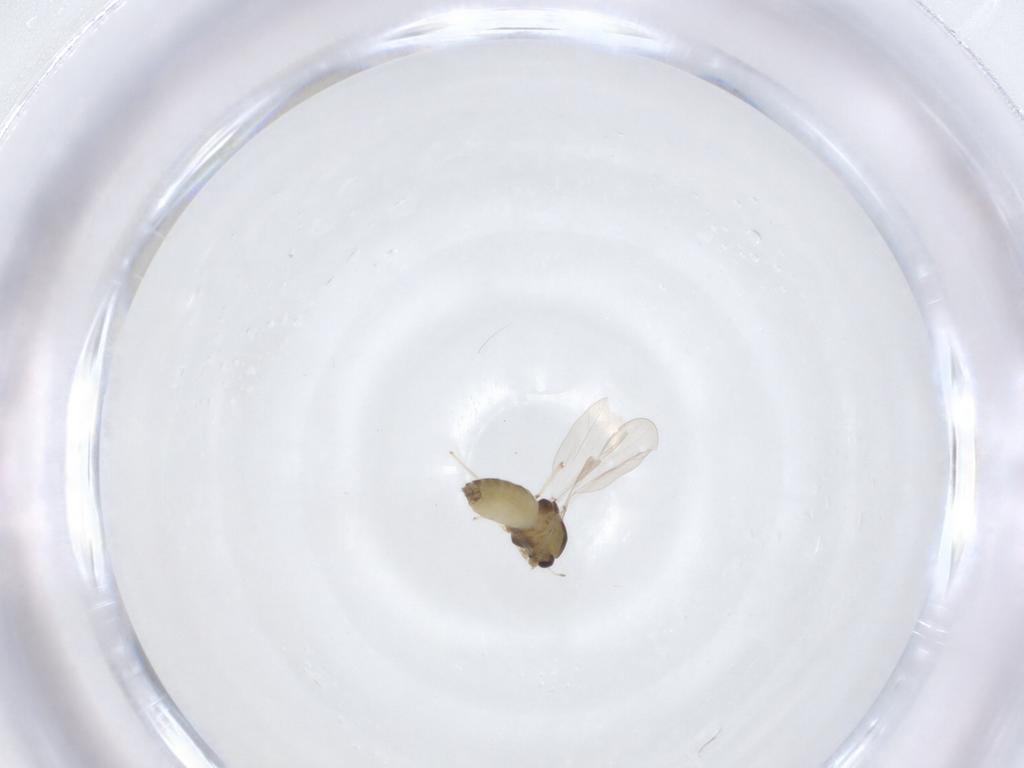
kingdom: Animalia
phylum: Arthropoda
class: Insecta
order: Diptera
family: Chironomidae
